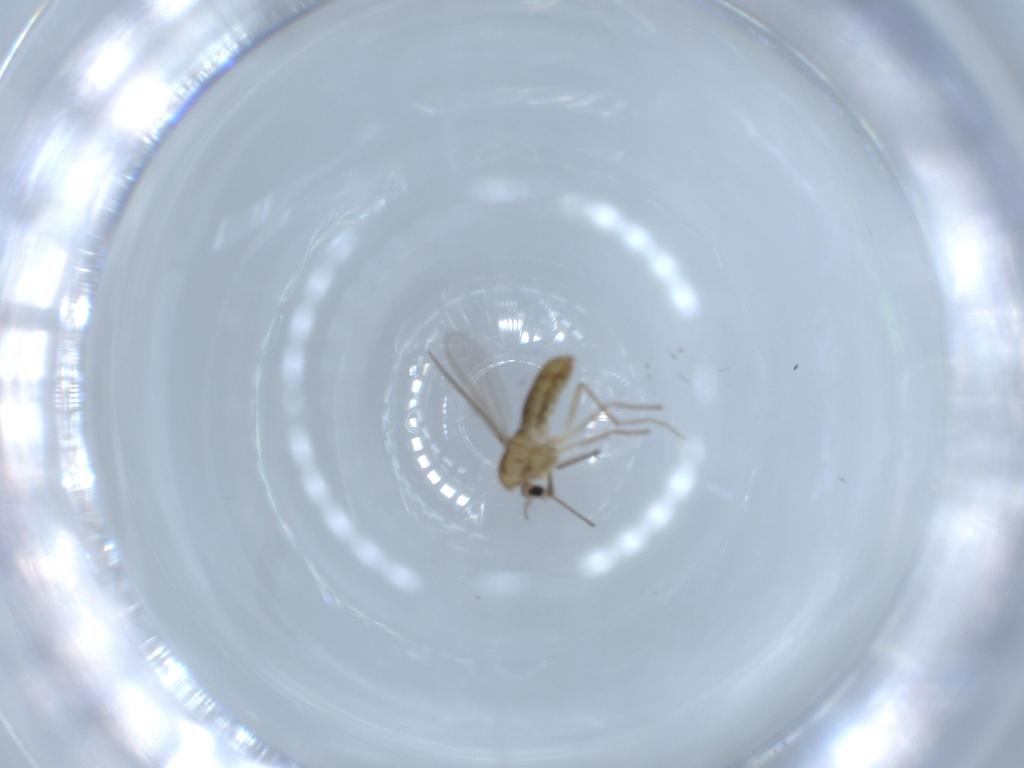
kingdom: Animalia
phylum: Arthropoda
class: Insecta
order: Diptera
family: Chironomidae
